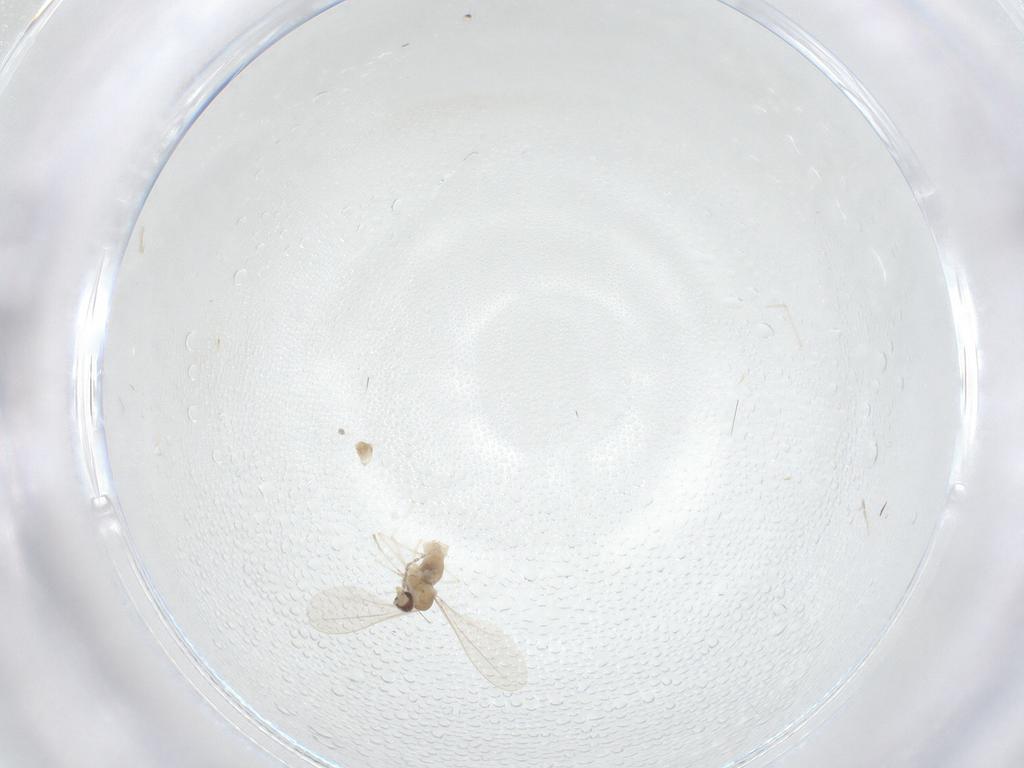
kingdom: Animalia
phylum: Arthropoda
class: Insecta
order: Diptera
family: Cecidomyiidae
